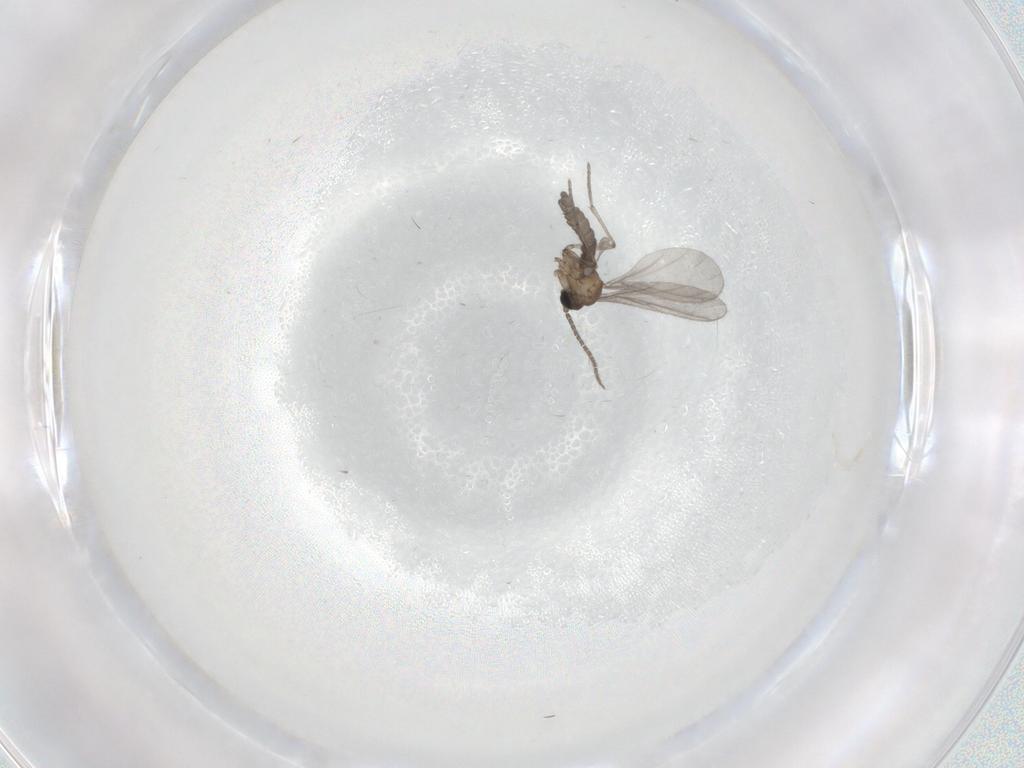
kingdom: Animalia
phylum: Arthropoda
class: Insecta
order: Diptera
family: Sciaridae
